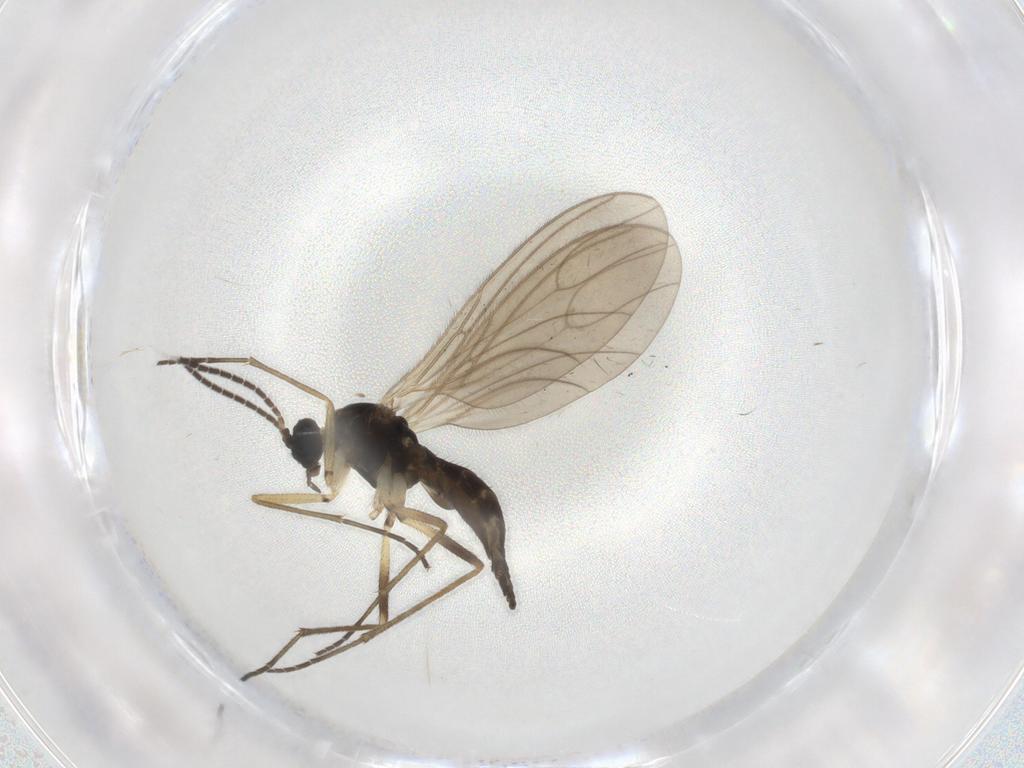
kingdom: Animalia
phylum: Arthropoda
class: Insecta
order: Diptera
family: Sciaridae
